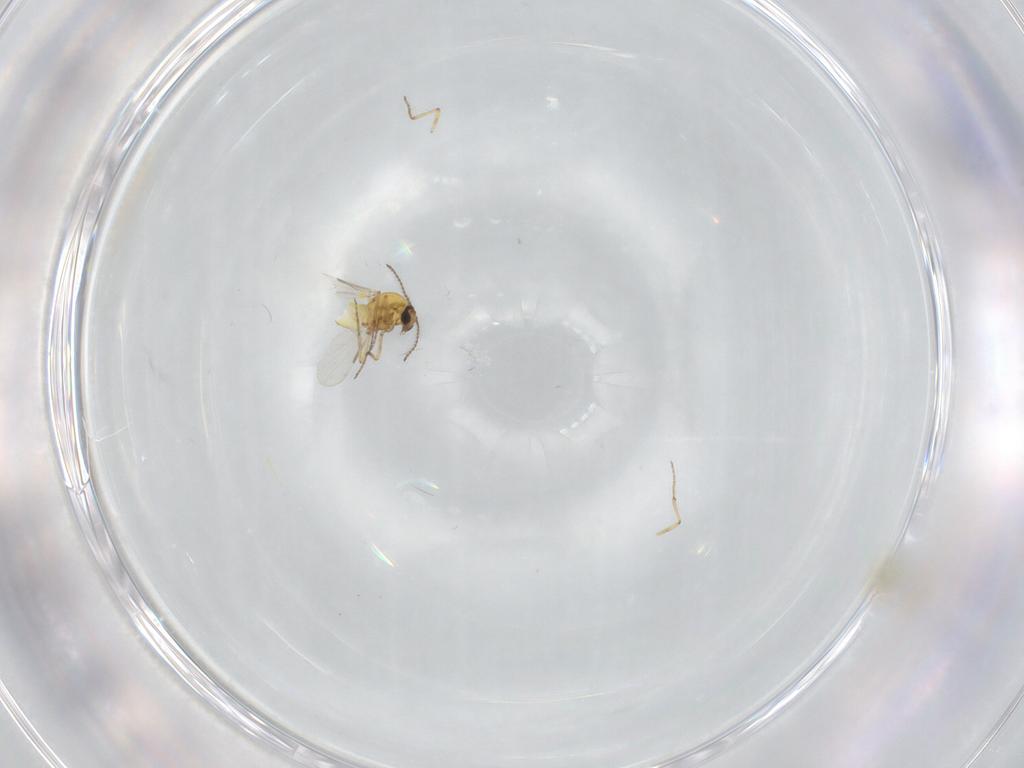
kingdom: Animalia
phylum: Arthropoda
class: Insecta
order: Diptera
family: Ceratopogonidae
